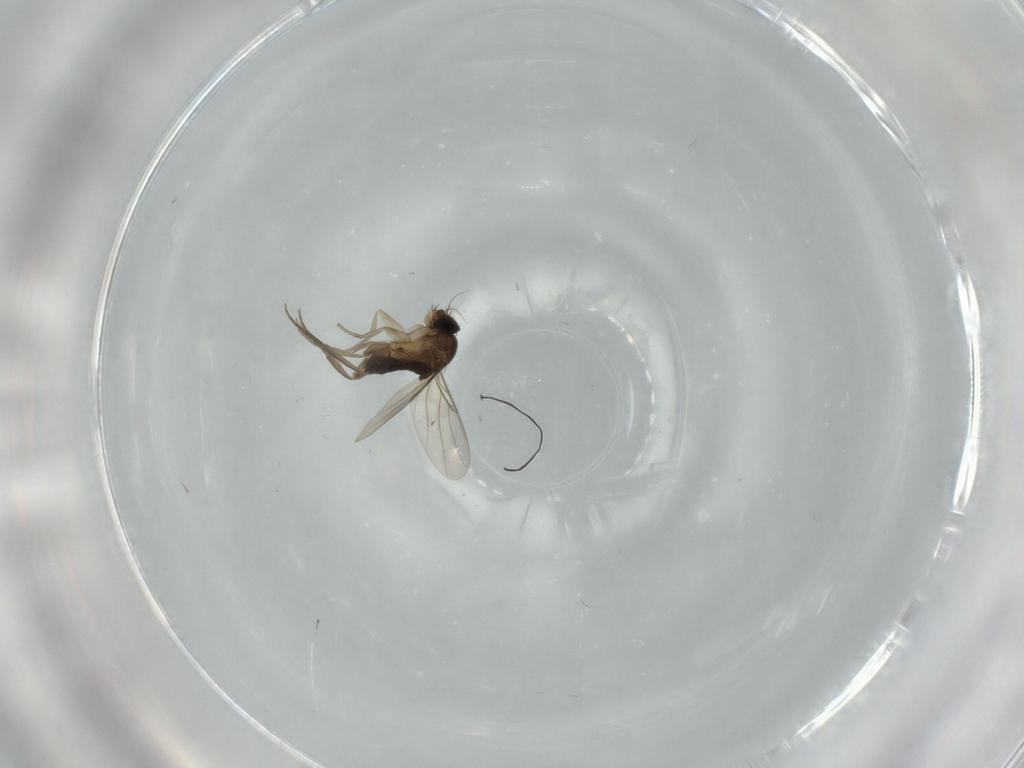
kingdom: Animalia
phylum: Arthropoda
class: Insecta
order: Diptera
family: Phoridae
